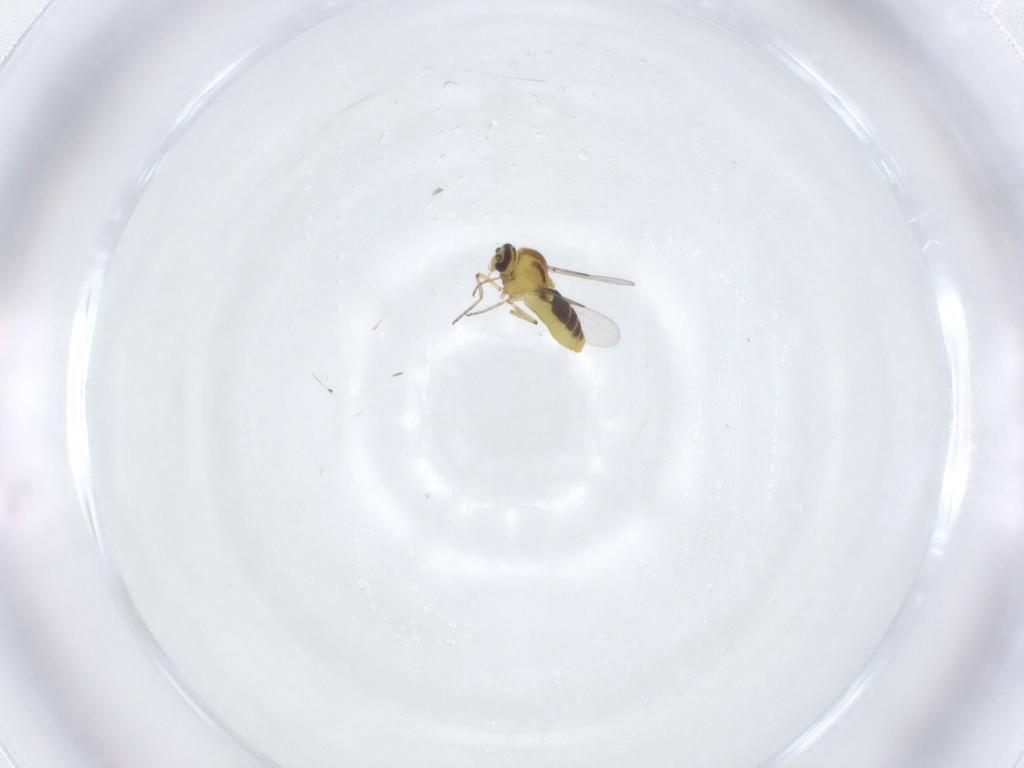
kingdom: Animalia
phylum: Arthropoda
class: Insecta
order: Diptera
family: Ceratopogonidae
